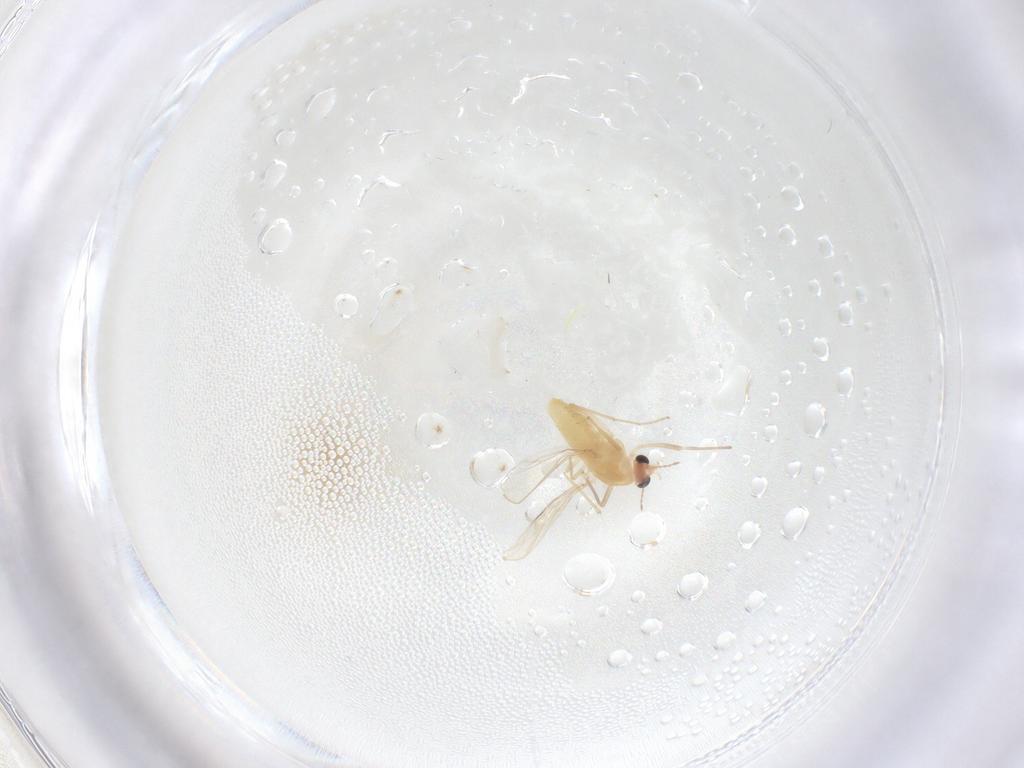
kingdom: Animalia
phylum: Arthropoda
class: Insecta
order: Diptera
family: Chironomidae
